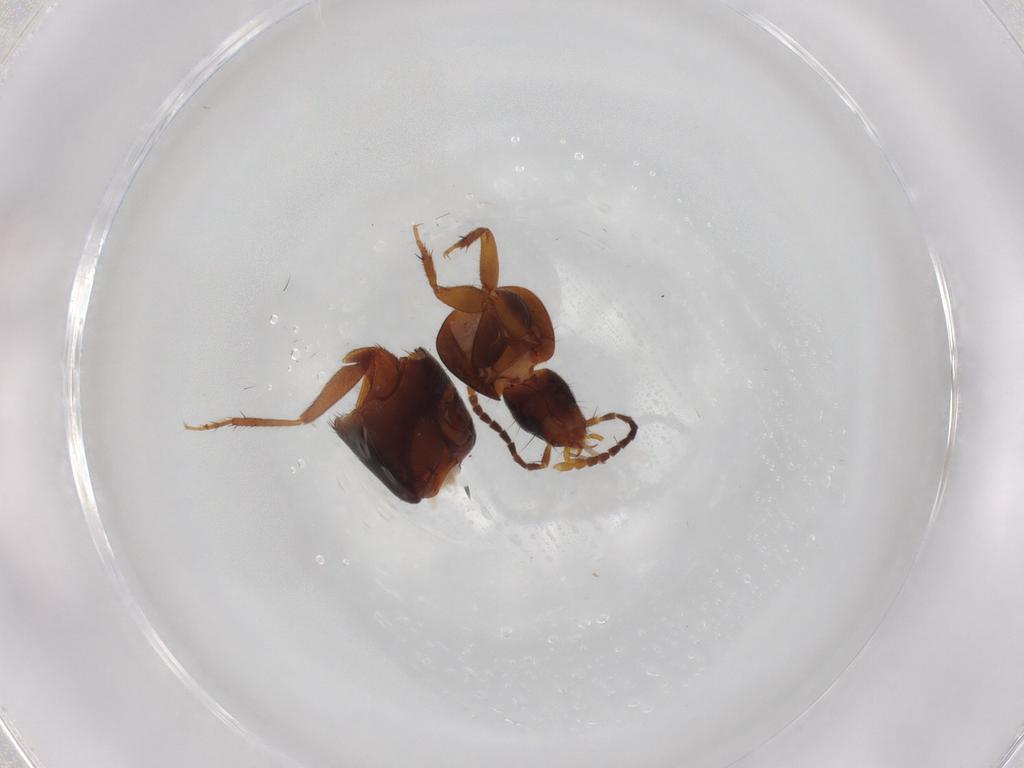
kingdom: Animalia
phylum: Arthropoda
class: Insecta
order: Coleoptera
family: Staphylinidae
